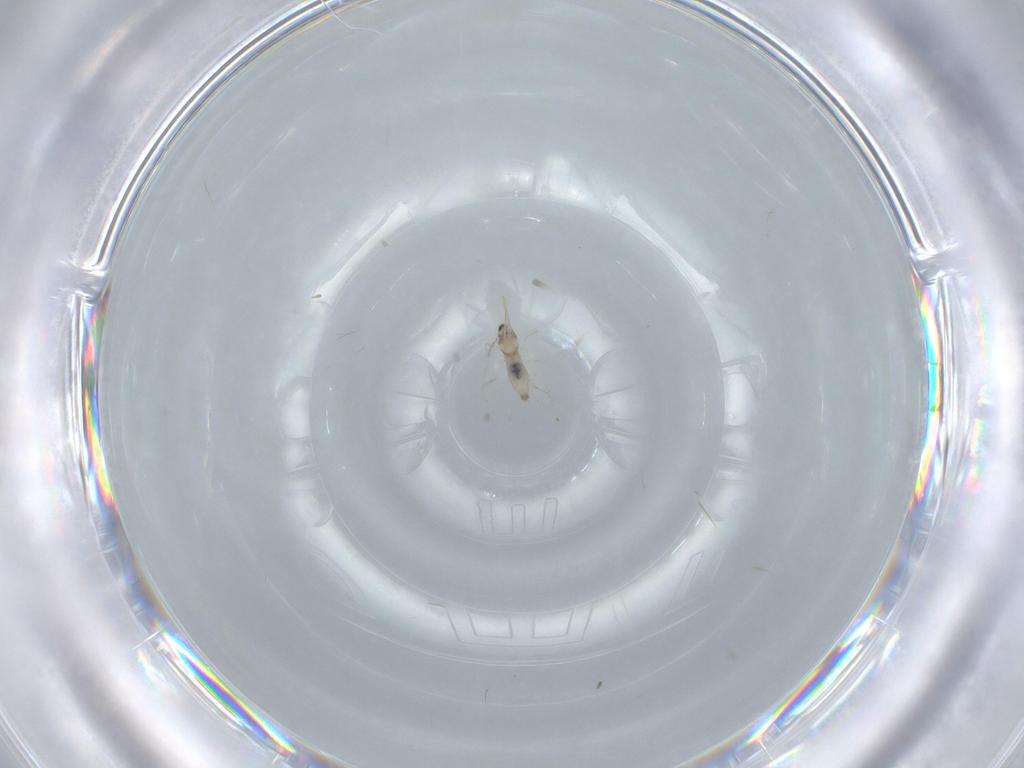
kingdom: Animalia
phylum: Arthropoda
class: Insecta
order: Diptera
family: Cecidomyiidae
